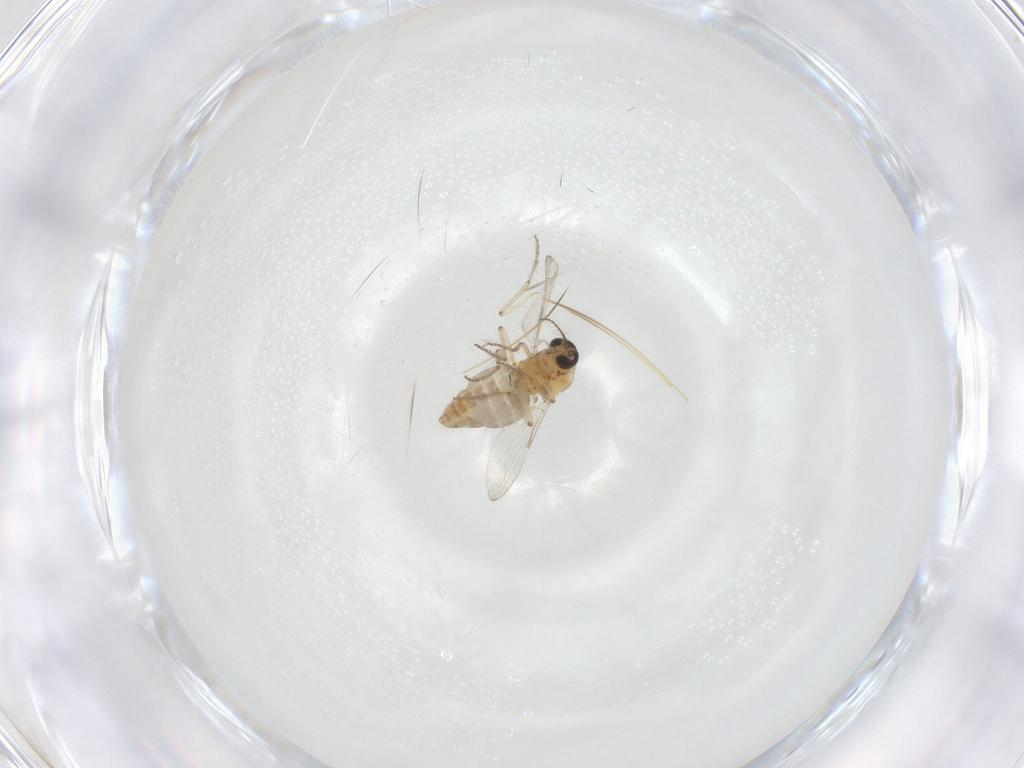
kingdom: Animalia
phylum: Arthropoda
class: Insecta
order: Diptera
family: Ceratopogonidae
